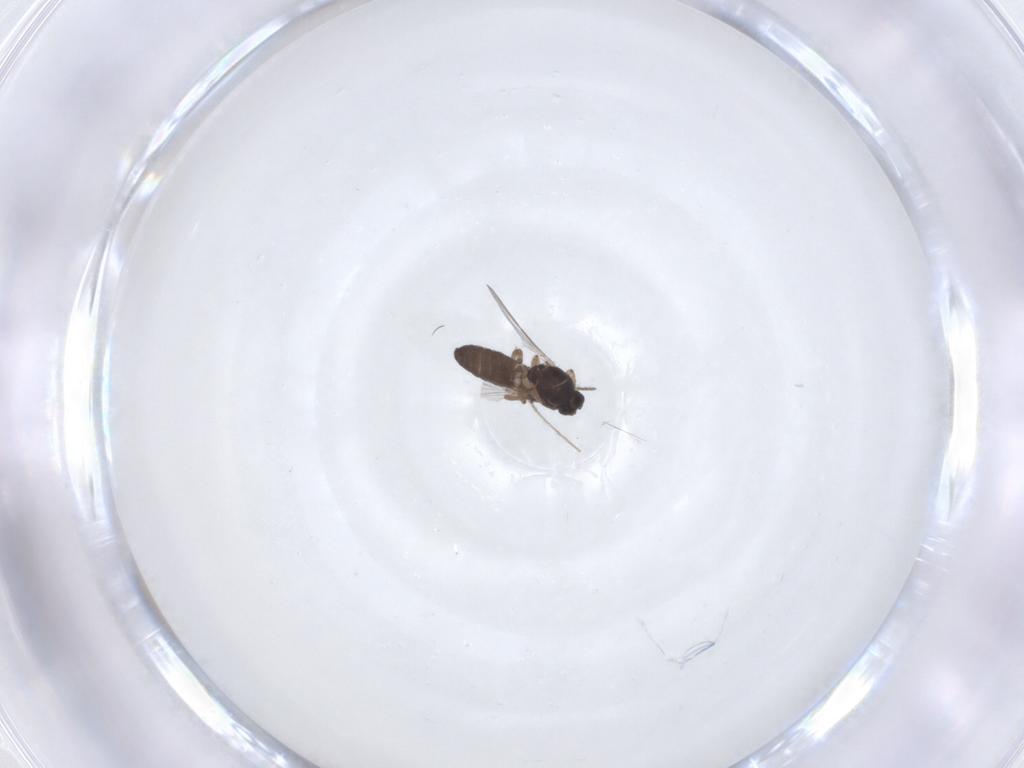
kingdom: Animalia
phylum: Arthropoda
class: Insecta
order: Diptera
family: Ceratopogonidae
